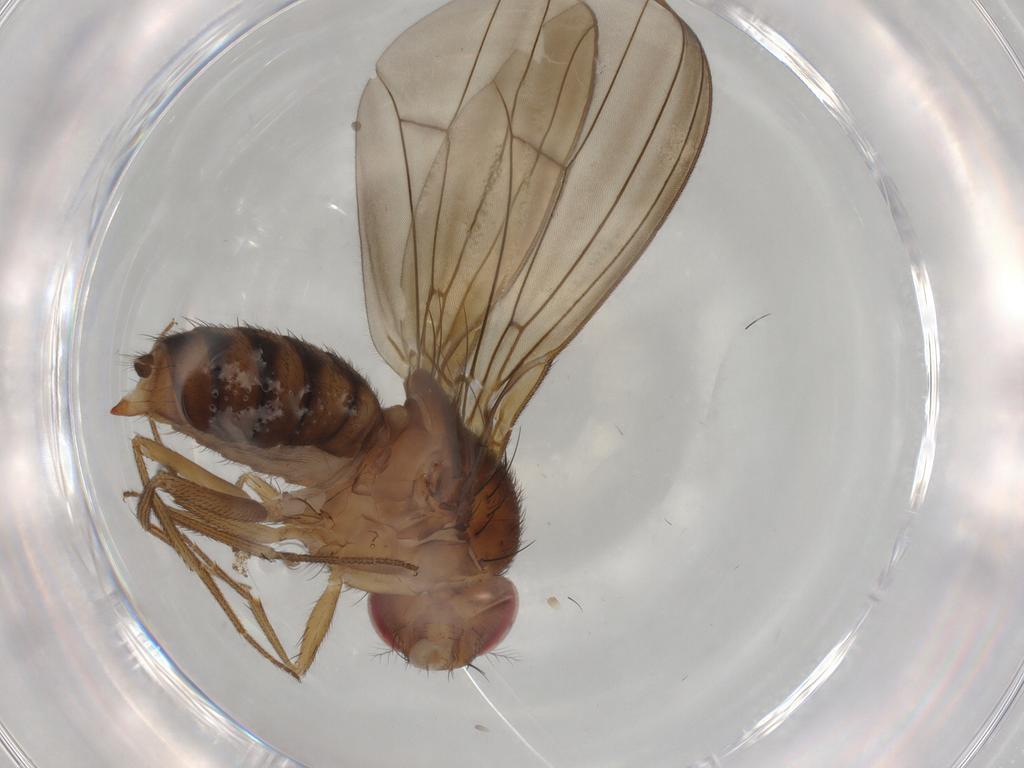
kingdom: Animalia
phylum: Arthropoda
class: Insecta
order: Diptera
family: Drosophilidae
